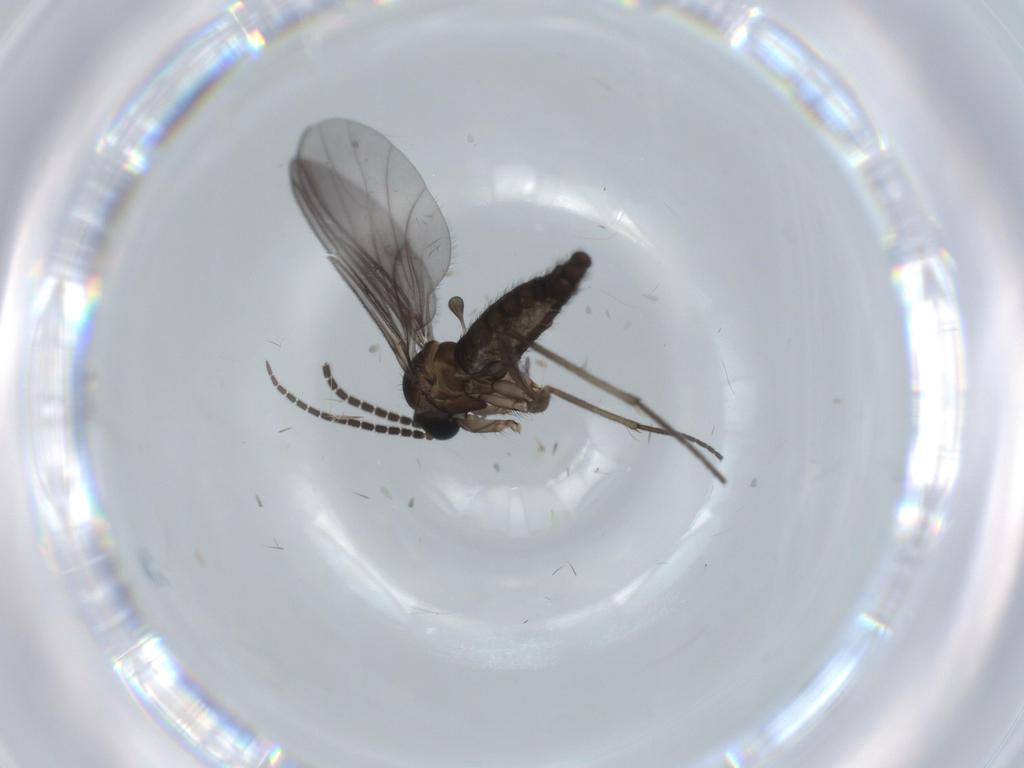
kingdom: Animalia
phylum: Arthropoda
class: Insecta
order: Diptera
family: Sciaridae
